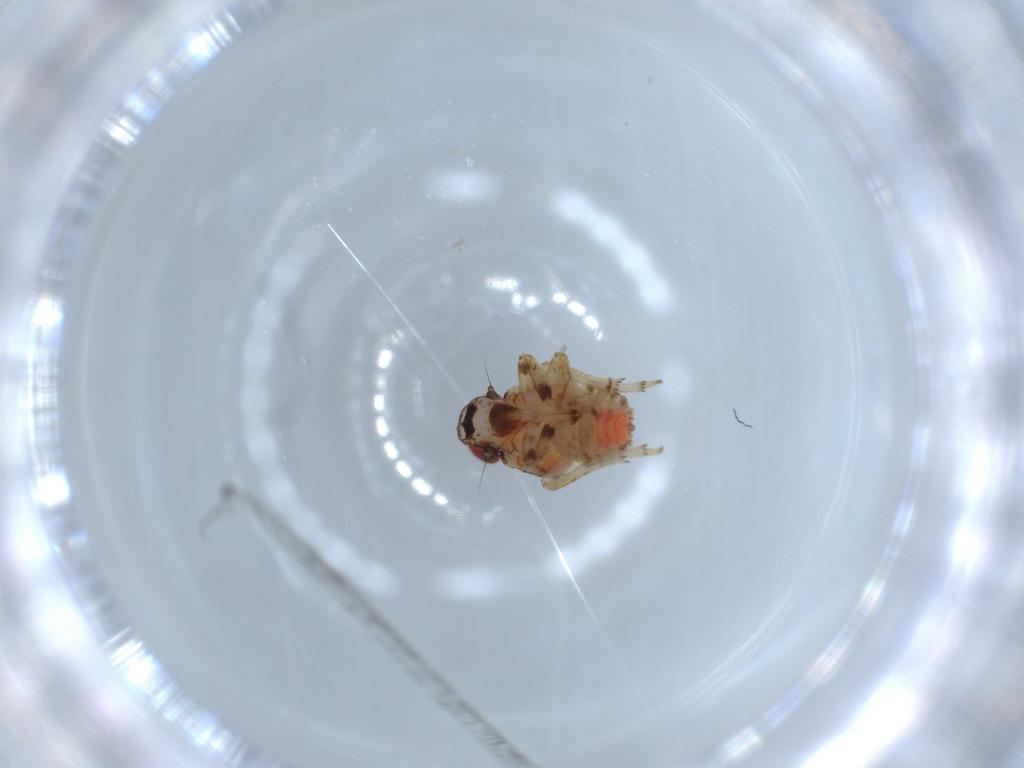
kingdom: Animalia
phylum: Arthropoda
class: Insecta
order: Hemiptera
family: Issidae
